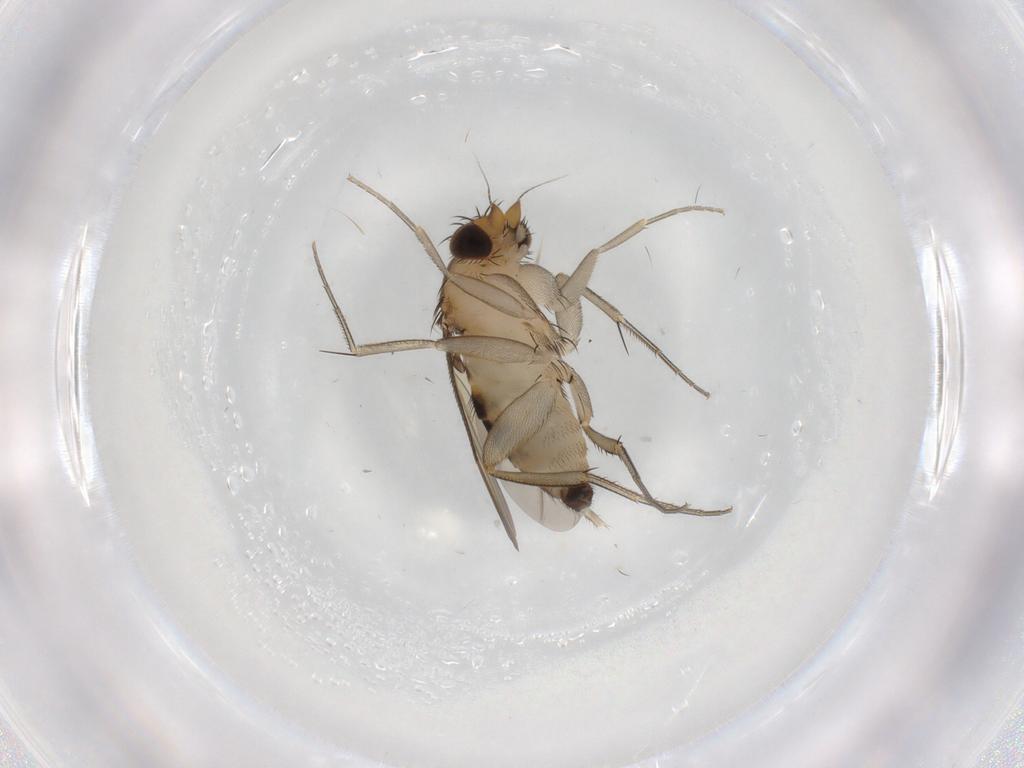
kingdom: Animalia
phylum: Arthropoda
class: Insecta
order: Diptera
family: Phoridae
